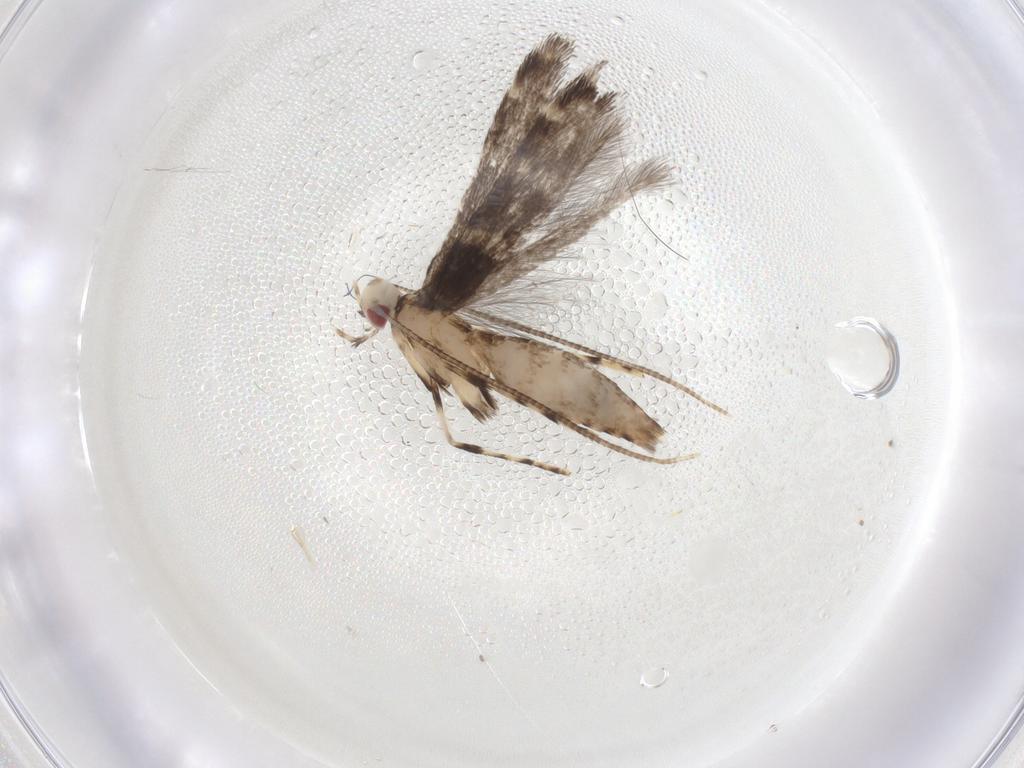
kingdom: Animalia
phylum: Arthropoda
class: Insecta
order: Lepidoptera
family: Gracillariidae
